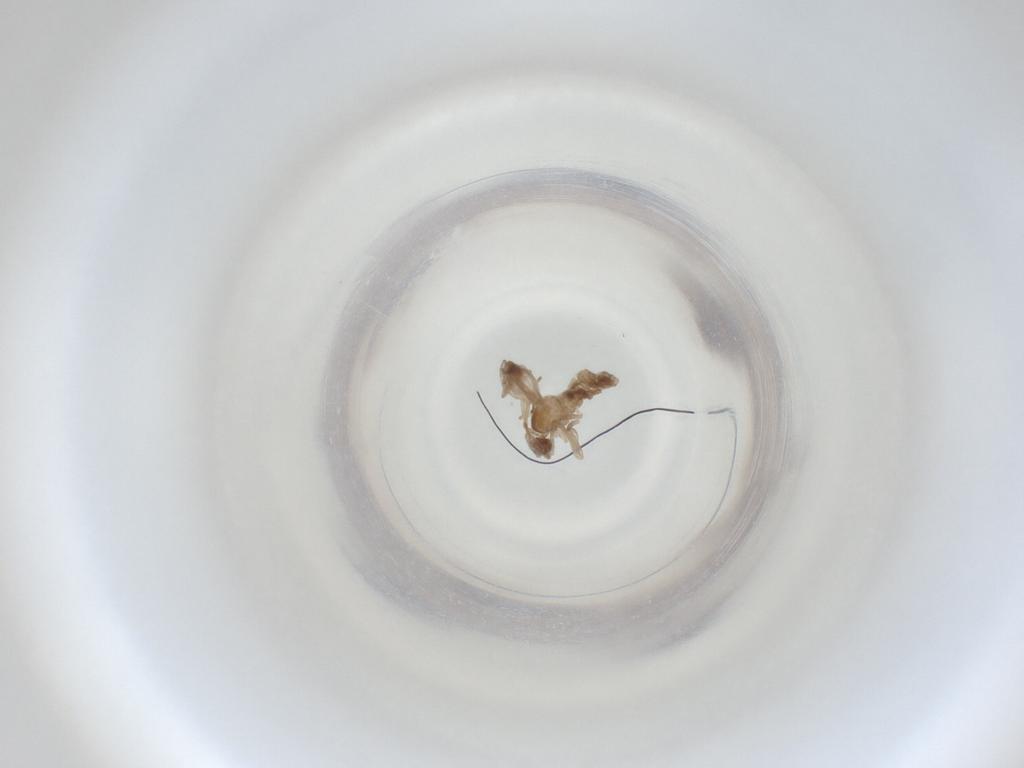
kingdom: Animalia
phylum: Arthropoda
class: Insecta
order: Diptera
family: Cecidomyiidae
